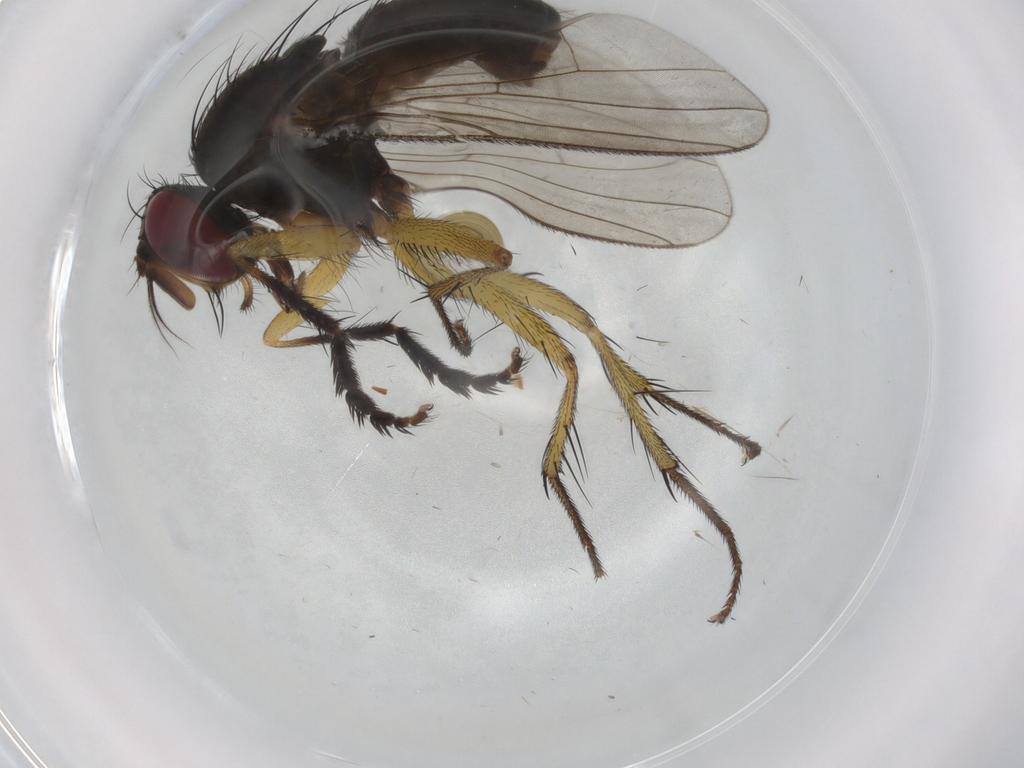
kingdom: Animalia
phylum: Arthropoda
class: Insecta
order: Diptera
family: Muscidae
